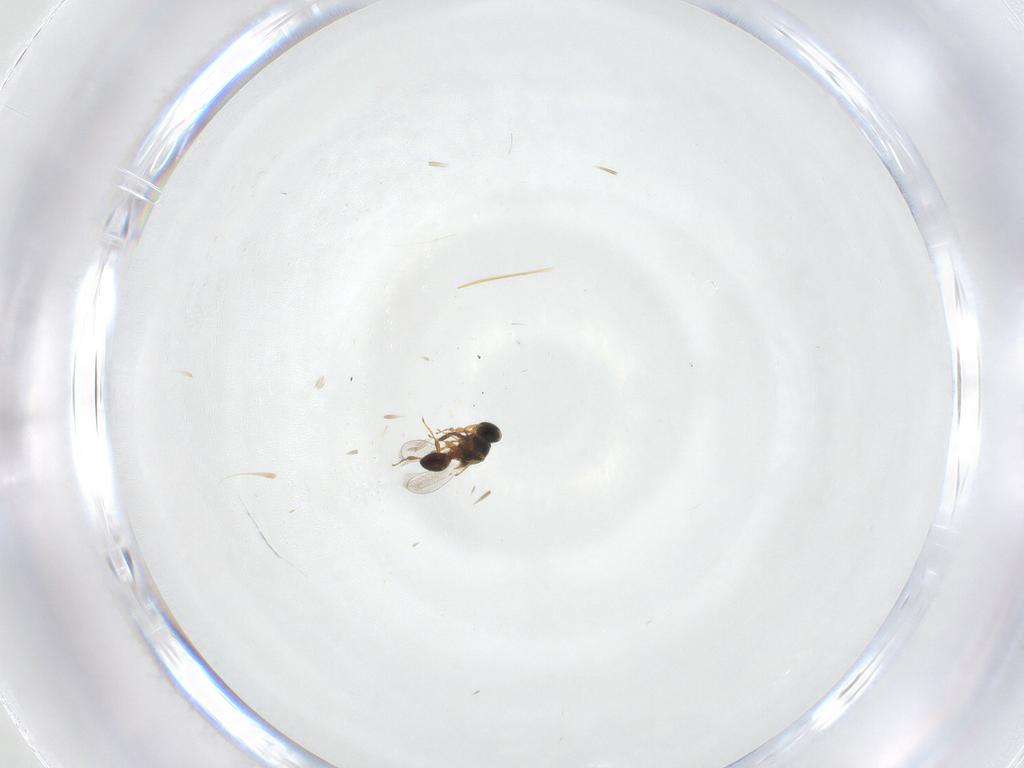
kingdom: Animalia
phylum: Arthropoda
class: Insecta
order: Hymenoptera
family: Platygastridae
